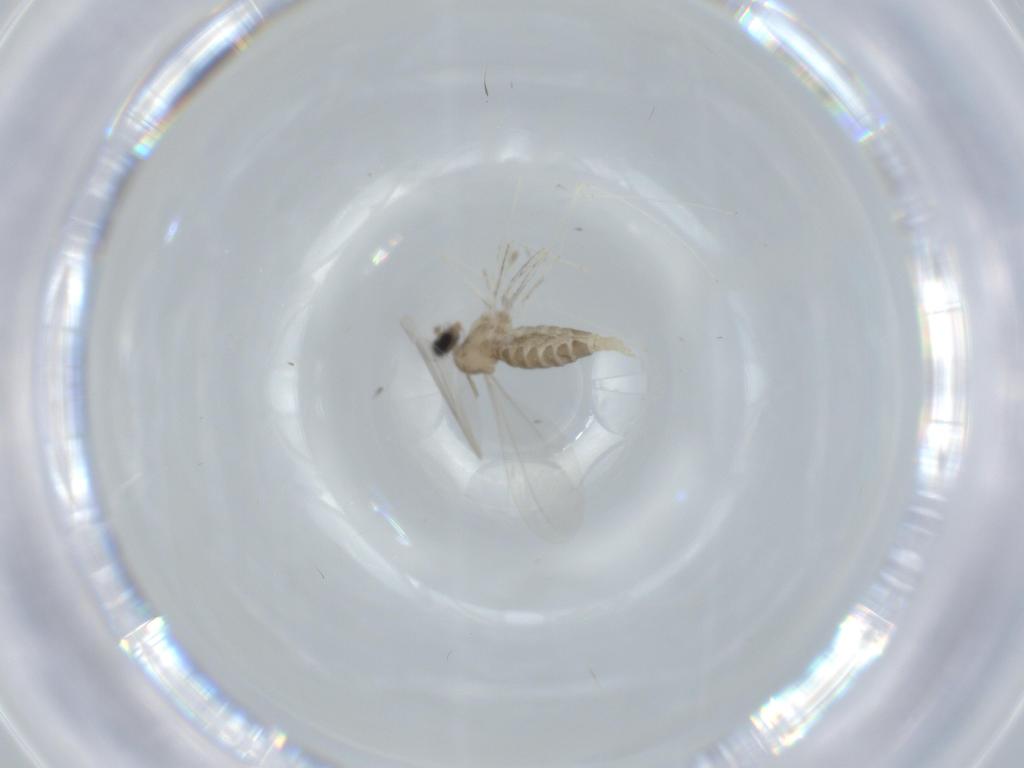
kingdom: Animalia
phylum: Arthropoda
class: Insecta
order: Diptera
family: Cecidomyiidae
